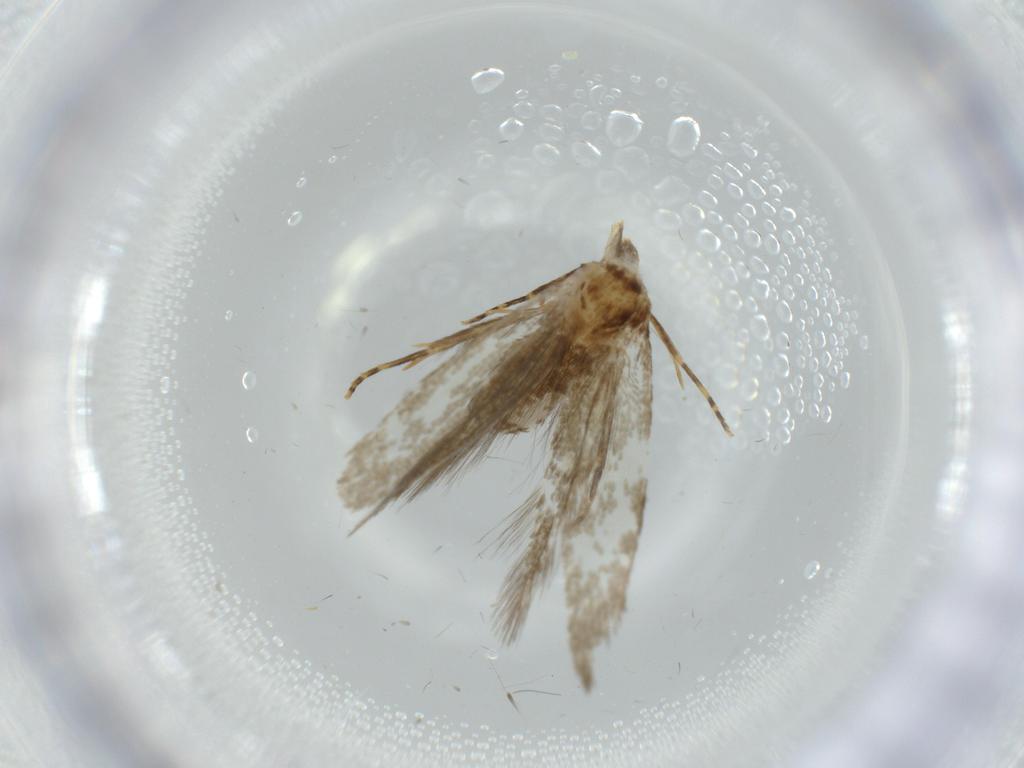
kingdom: Animalia
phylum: Arthropoda
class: Insecta
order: Lepidoptera
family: Tineidae
